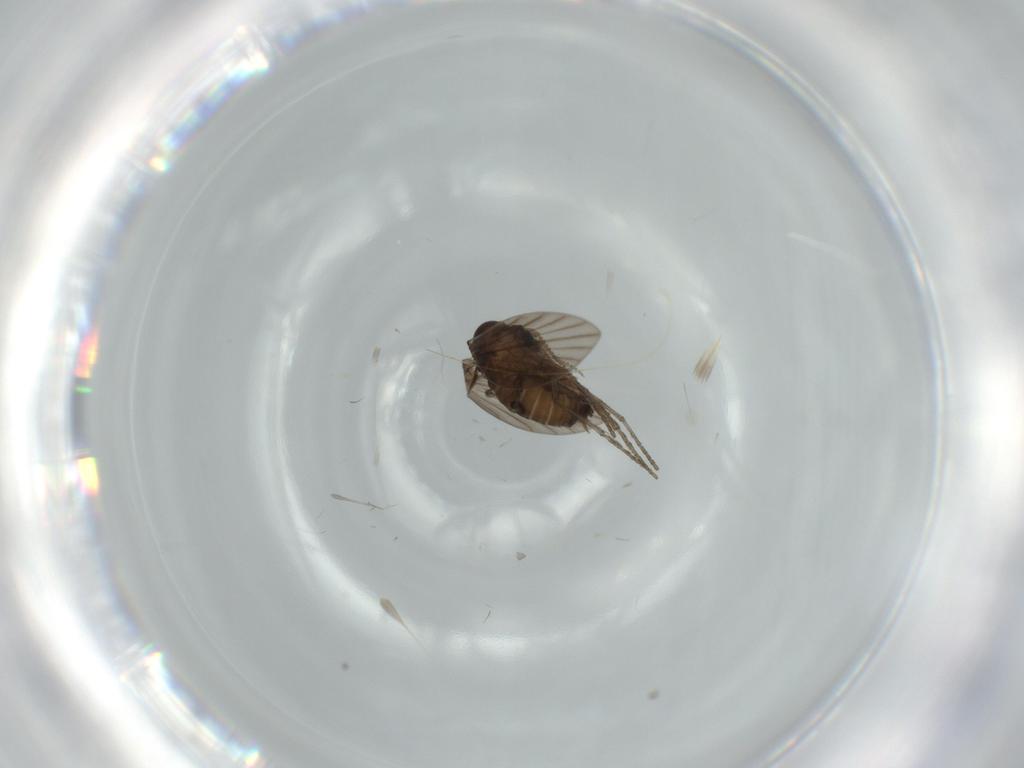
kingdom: Animalia
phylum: Arthropoda
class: Insecta
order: Diptera
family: Psychodidae
